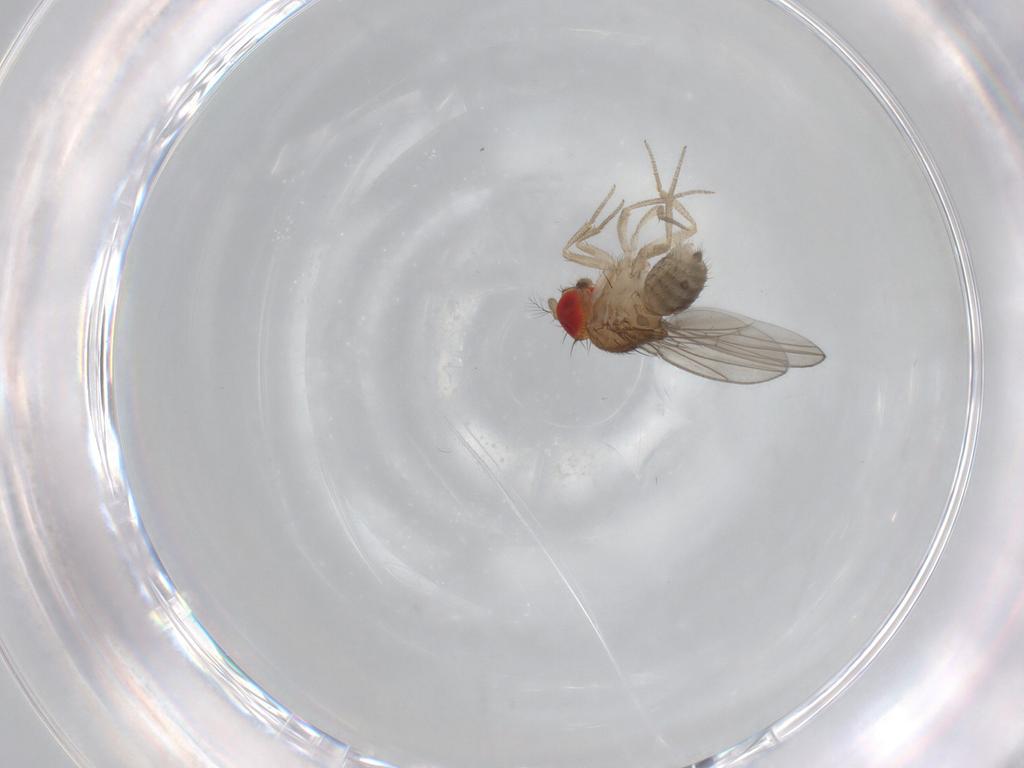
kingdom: Animalia
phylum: Arthropoda
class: Insecta
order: Diptera
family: Drosophilidae
